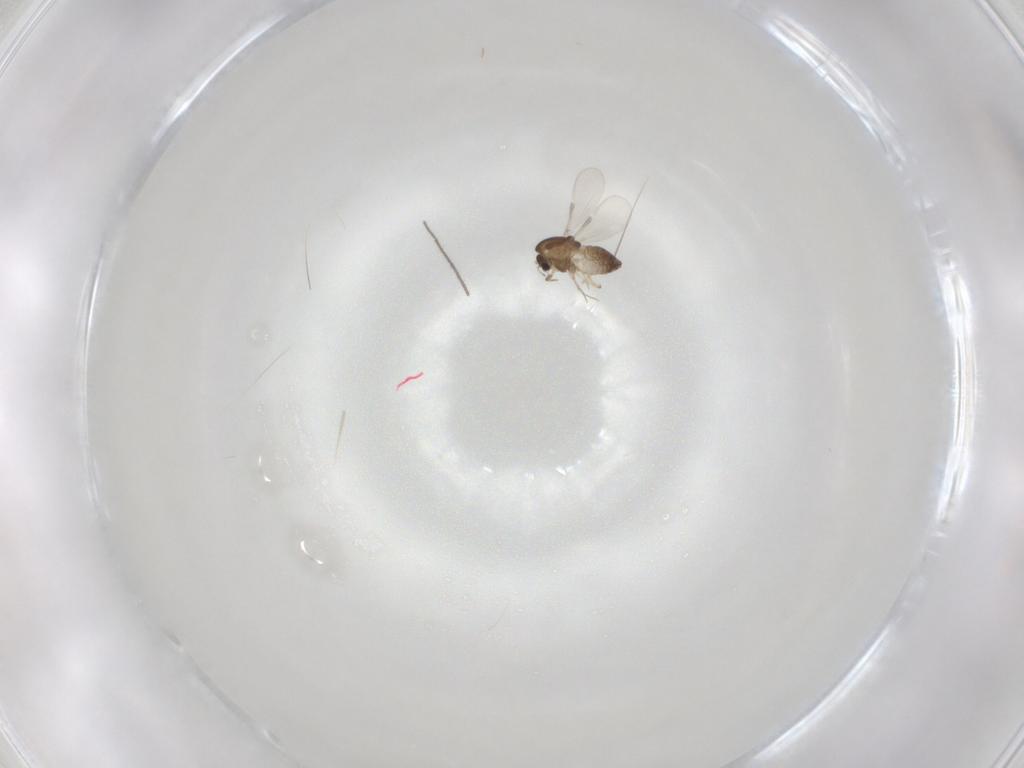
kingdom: Animalia
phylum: Arthropoda
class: Insecta
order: Diptera
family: Chironomidae
